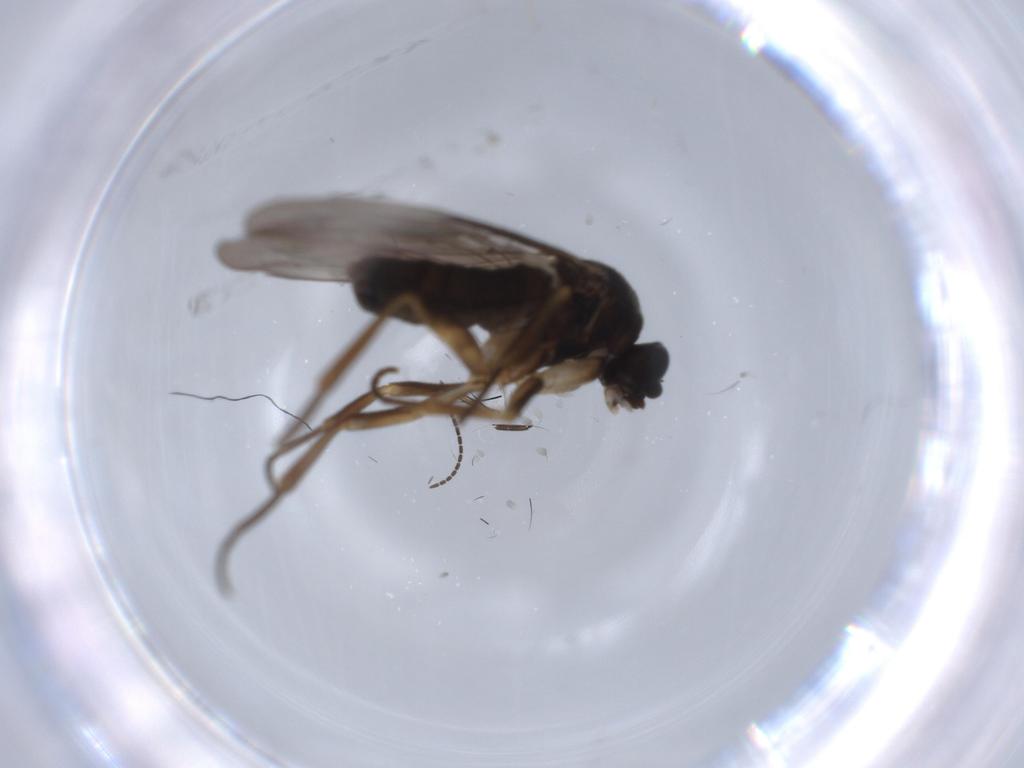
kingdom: Animalia
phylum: Arthropoda
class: Insecta
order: Diptera
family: Chironomidae
